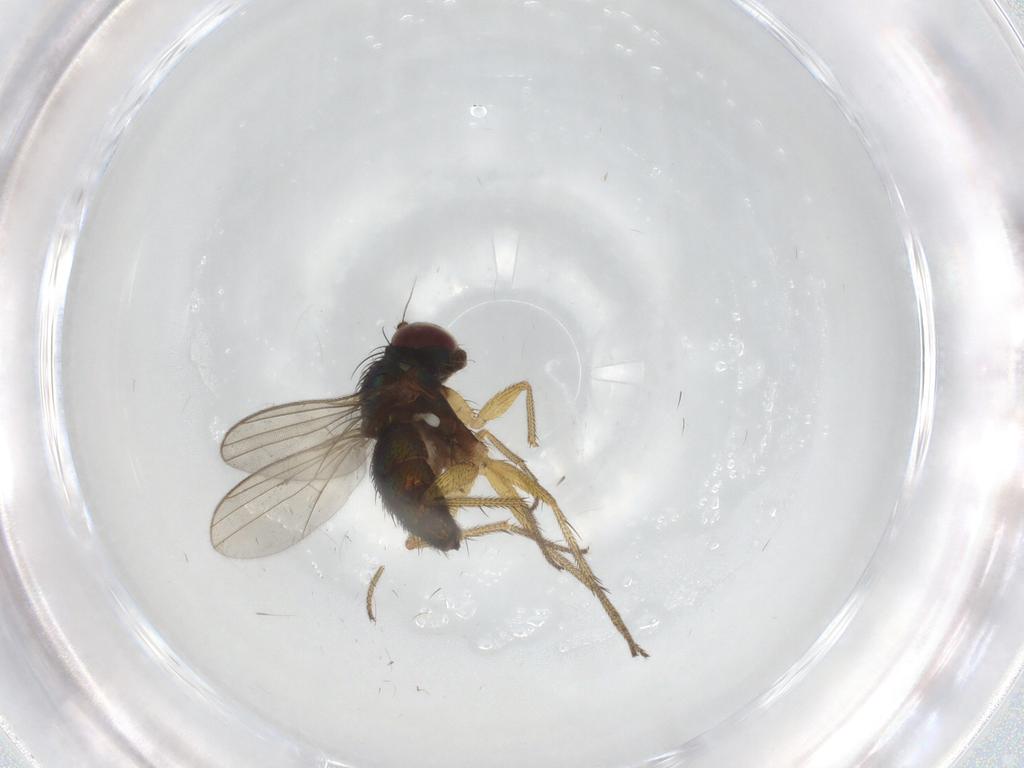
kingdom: Animalia
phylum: Arthropoda
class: Insecta
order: Diptera
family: Dolichopodidae
